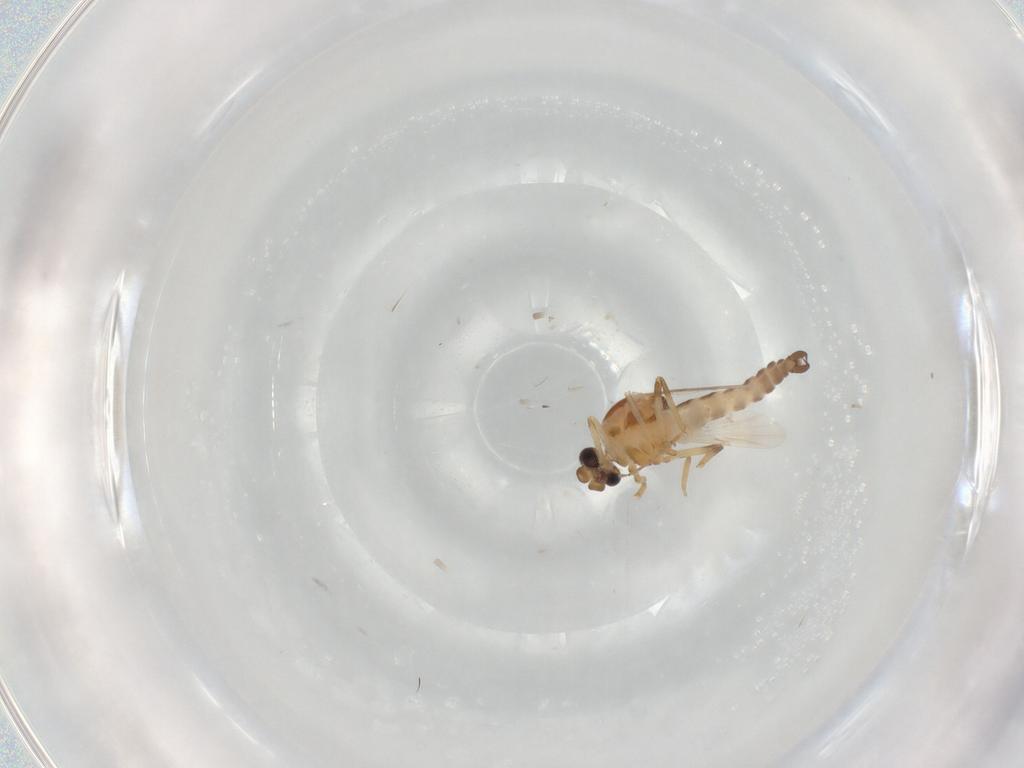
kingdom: Animalia
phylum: Arthropoda
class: Insecta
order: Diptera
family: Ceratopogonidae
